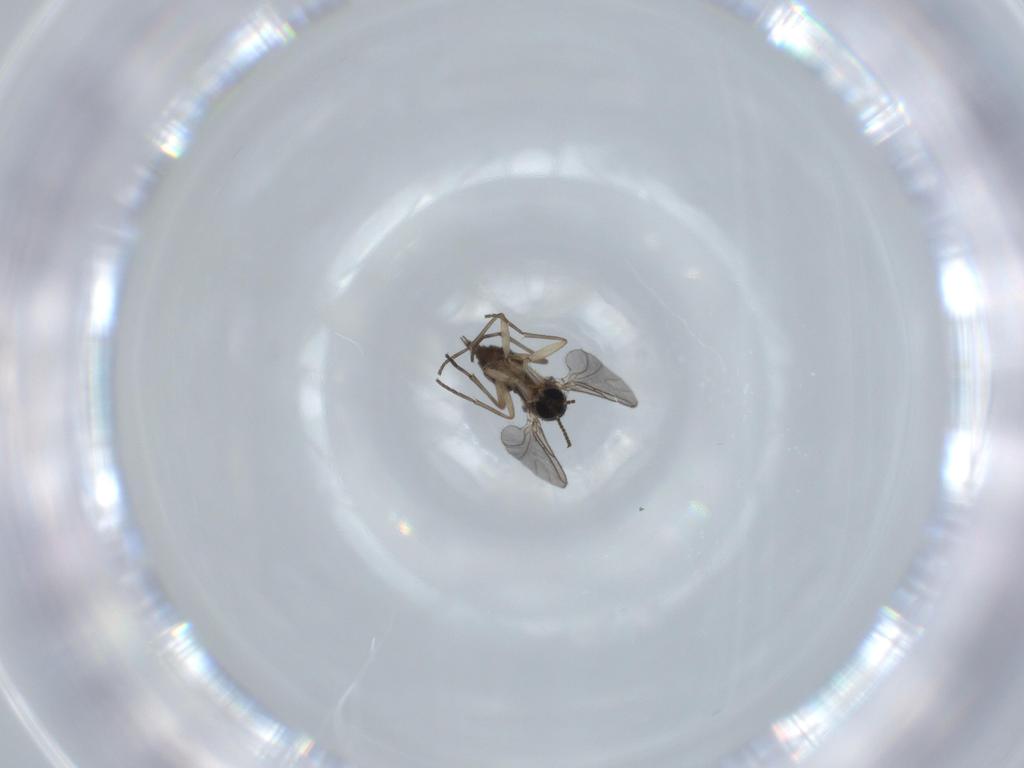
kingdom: Animalia
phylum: Arthropoda
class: Insecta
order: Diptera
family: Sciaridae
